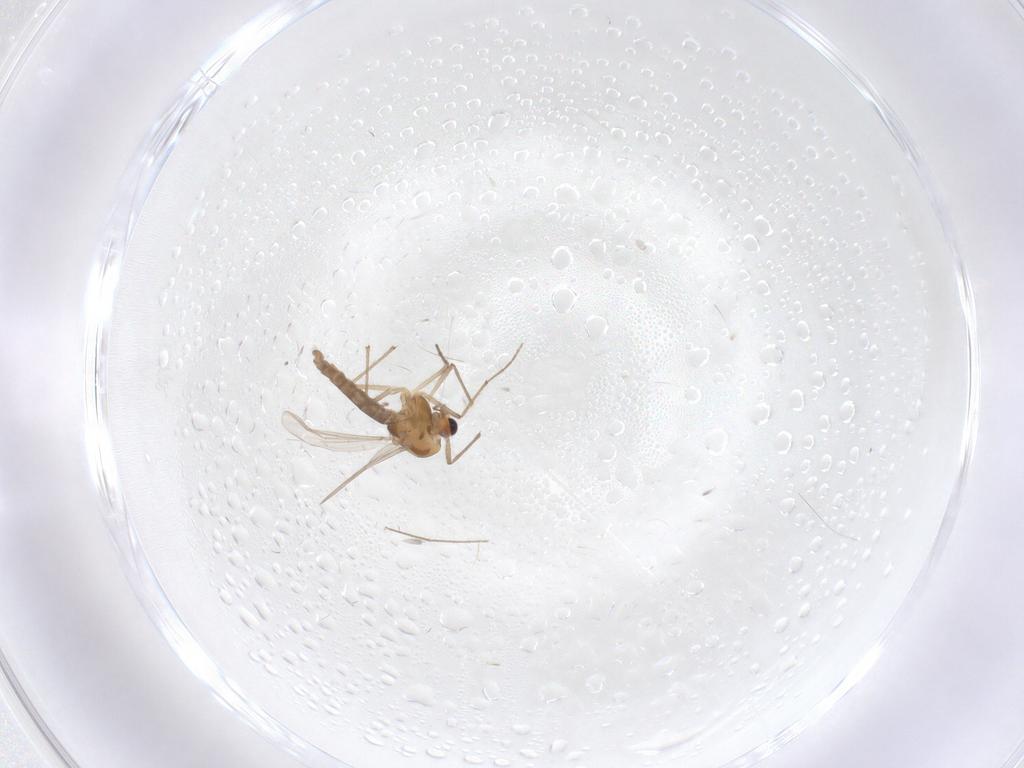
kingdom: Animalia
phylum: Arthropoda
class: Insecta
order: Diptera
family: Chironomidae
